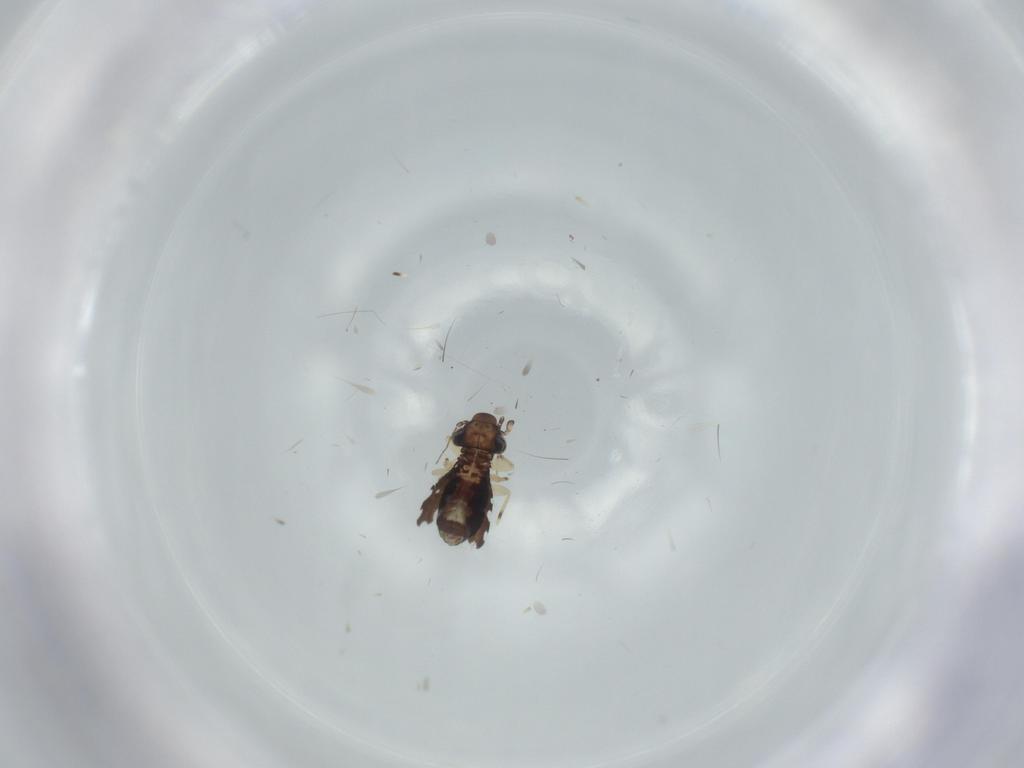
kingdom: Animalia
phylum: Arthropoda
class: Insecta
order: Psocodea
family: Psoquillidae
